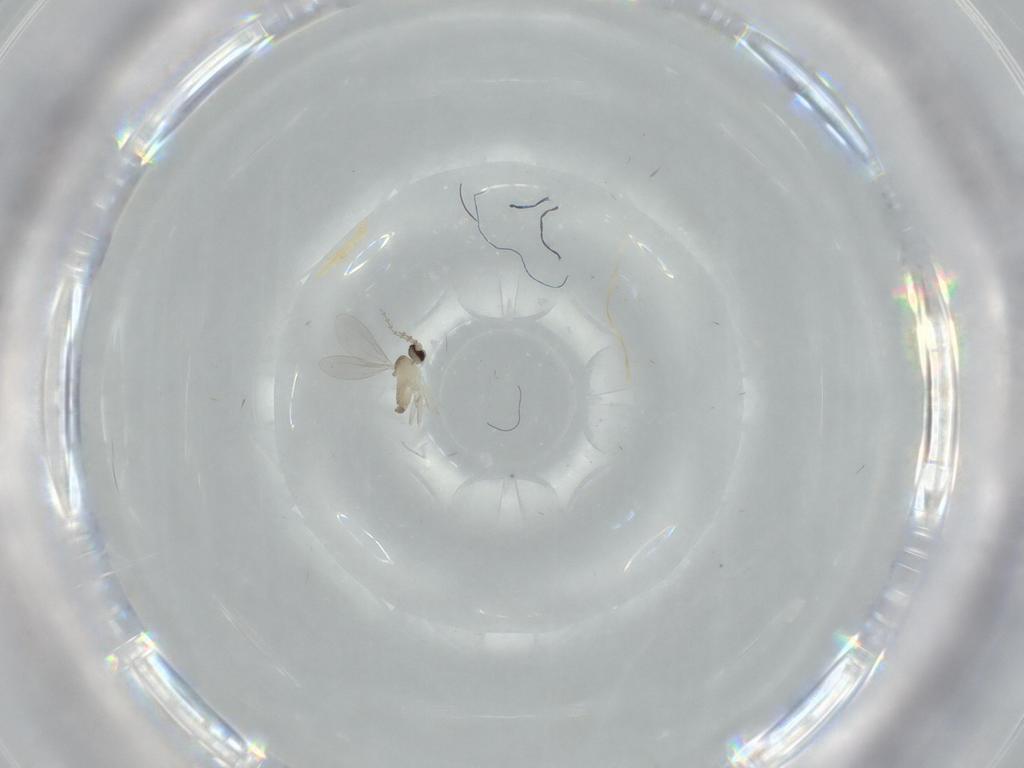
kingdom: Animalia
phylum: Arthropoda
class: Insecta
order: Diptera
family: Cecidomyiidae
